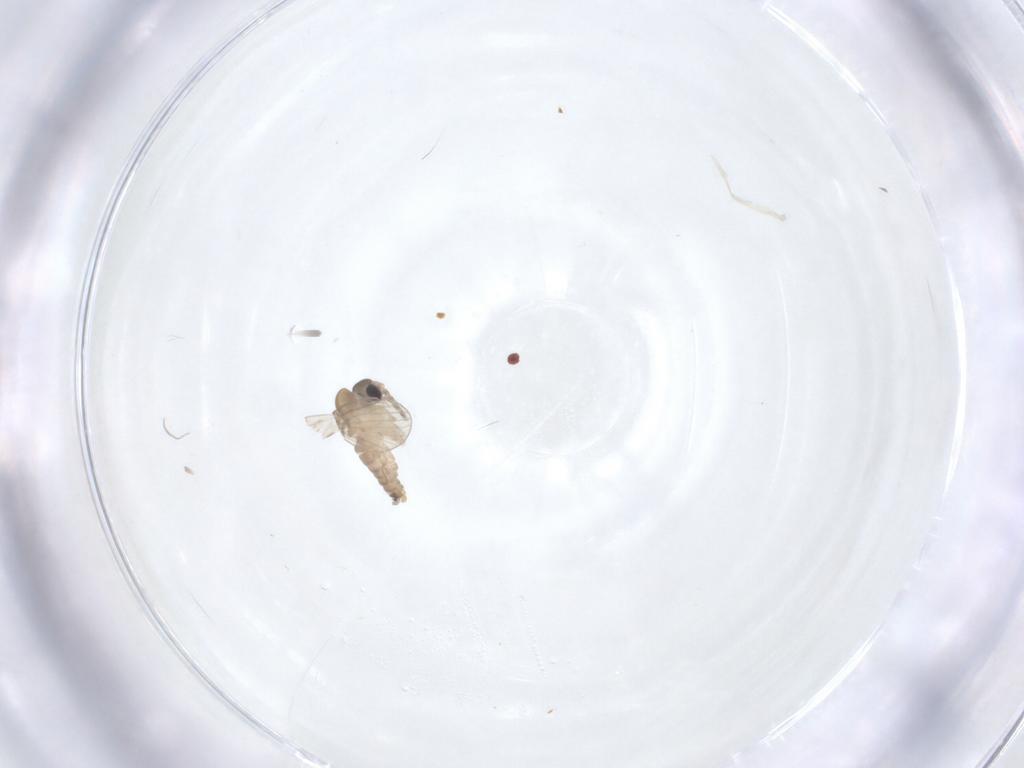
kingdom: Animalia
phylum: Arthropoda
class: Insecta
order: Diptera
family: Psychodidae
